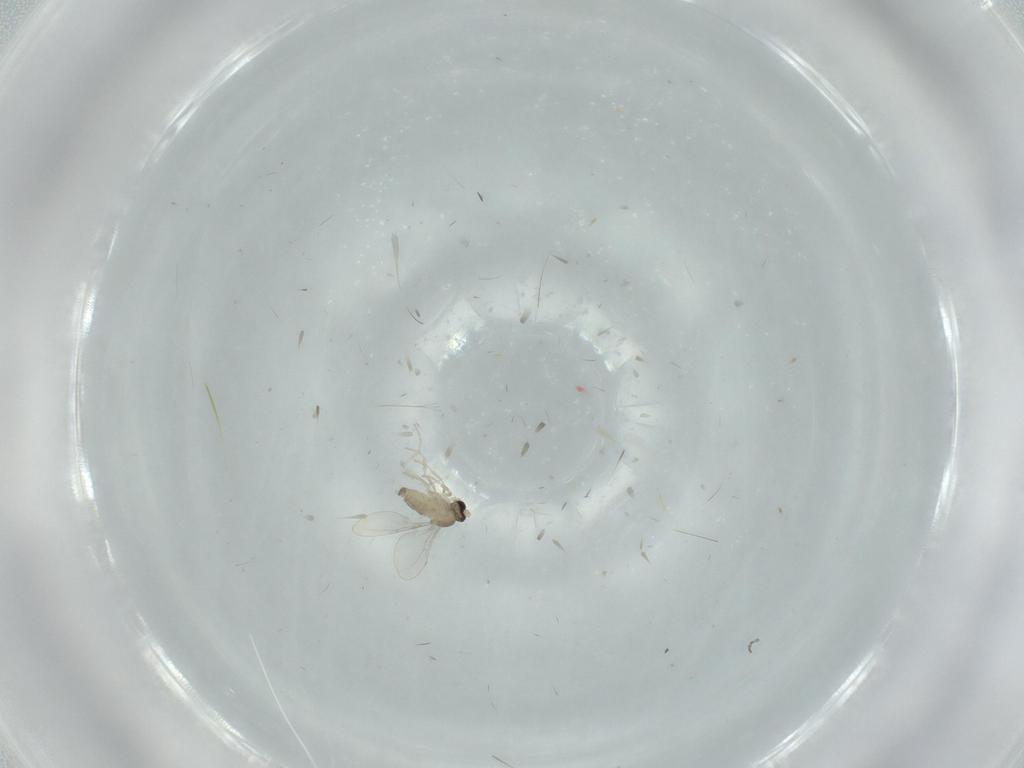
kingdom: Animalia
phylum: Arthropoda
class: Insecta
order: Diptera
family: Cecidomyiidae
